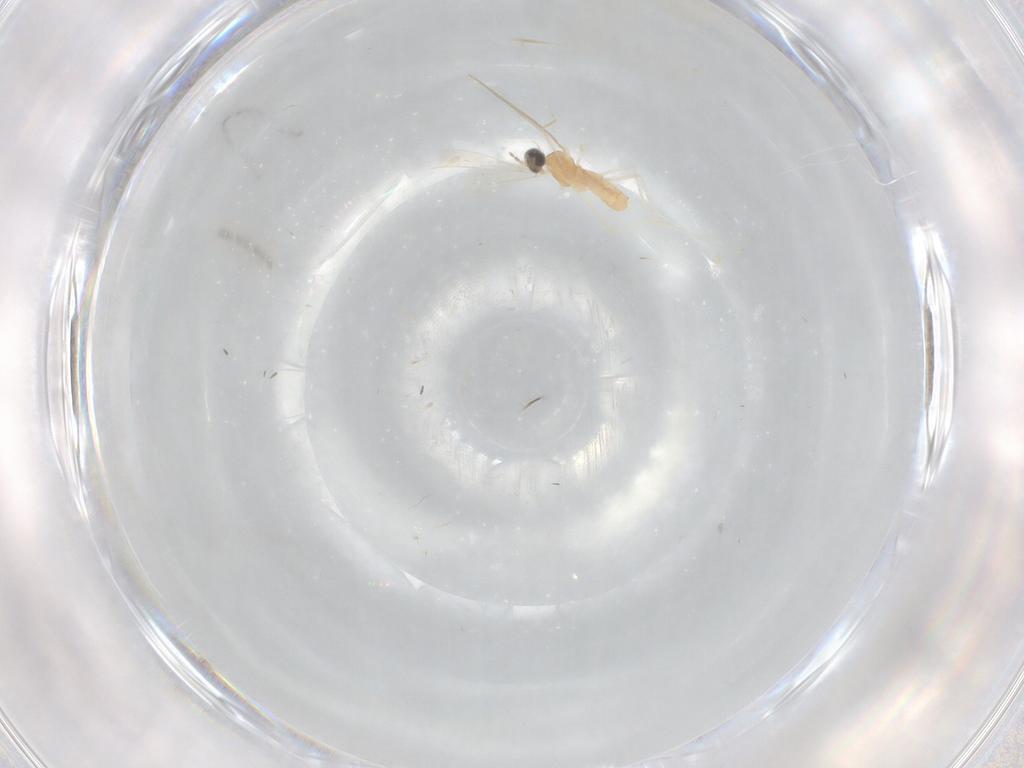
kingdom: Animalia
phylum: Arthropoda
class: Insecta
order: Diptera
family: Cecidomyiidae
